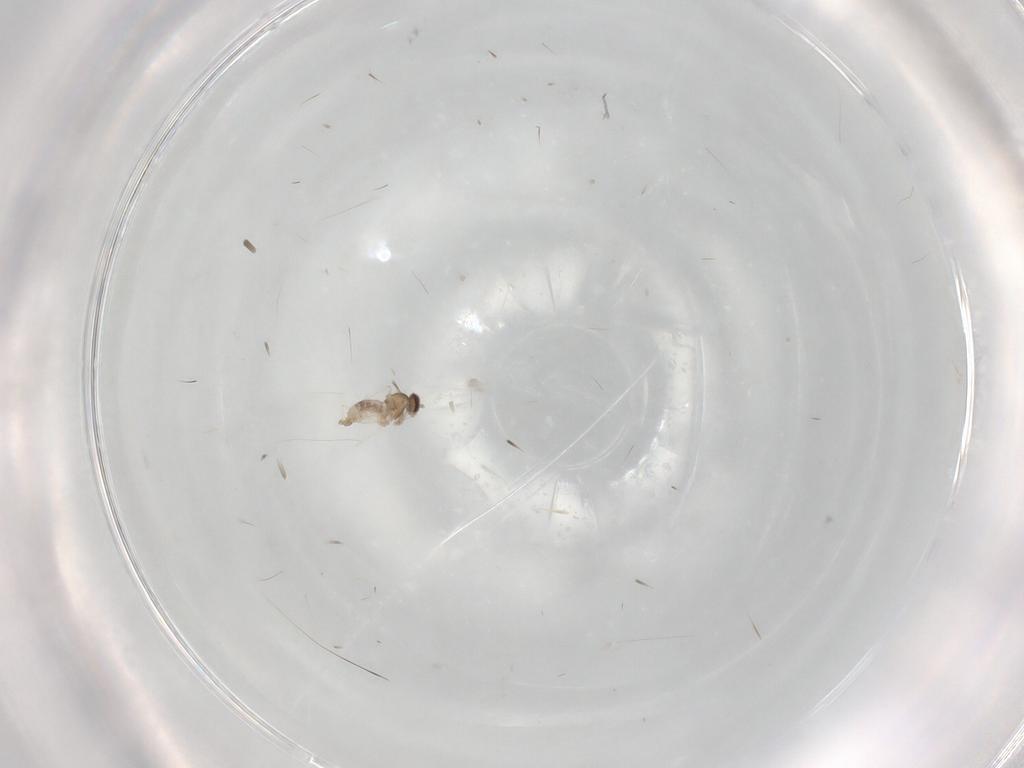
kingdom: Animalia
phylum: Arthropoda
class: Insecta
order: Diptera
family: Cecidomyiidae
